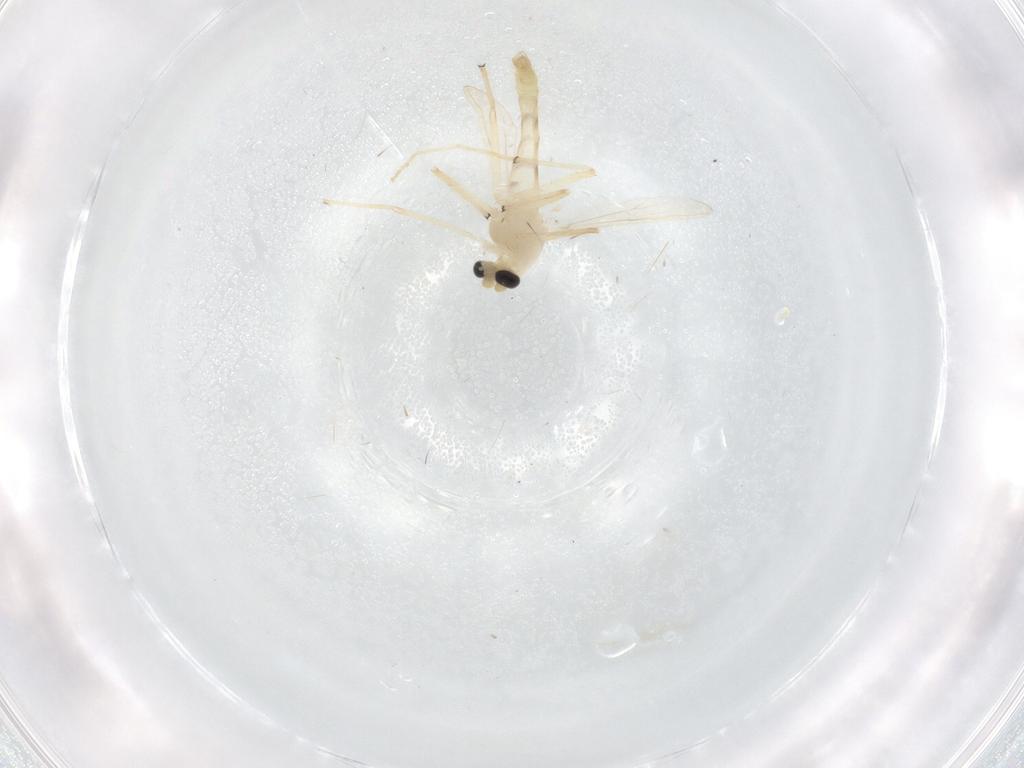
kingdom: Animalia
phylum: Arthropoda
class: Insecta
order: Diptera
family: Chironomidae
